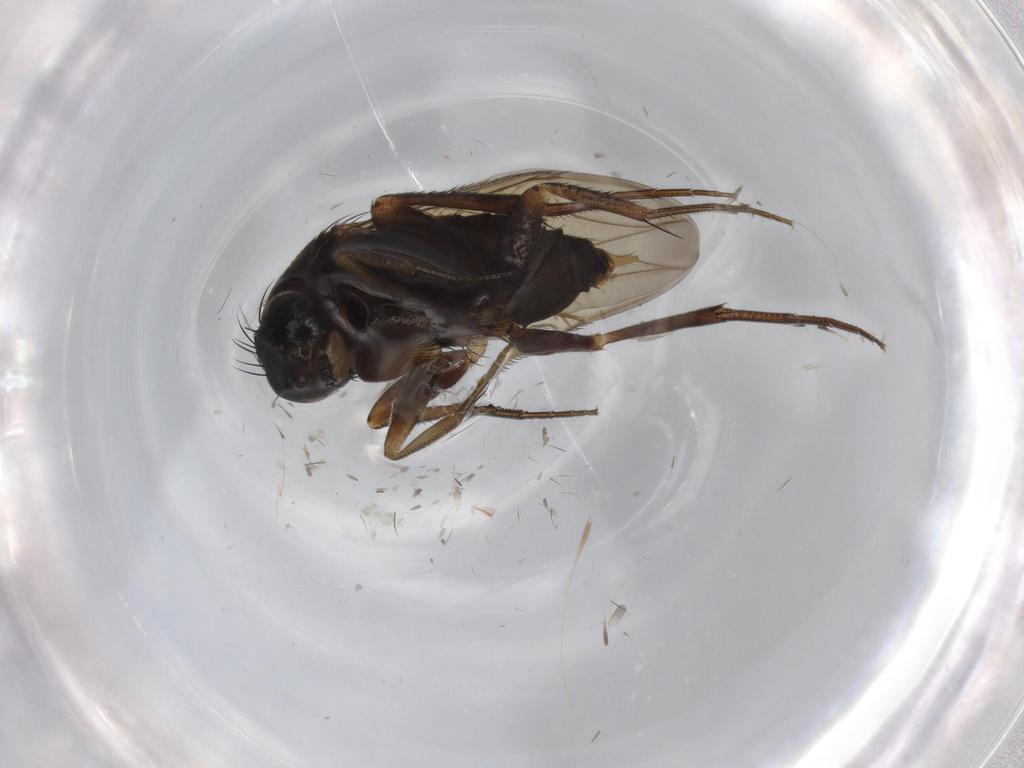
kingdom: Animalia
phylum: Arthropoda
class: Insecta
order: Diptera
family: Phoridae
